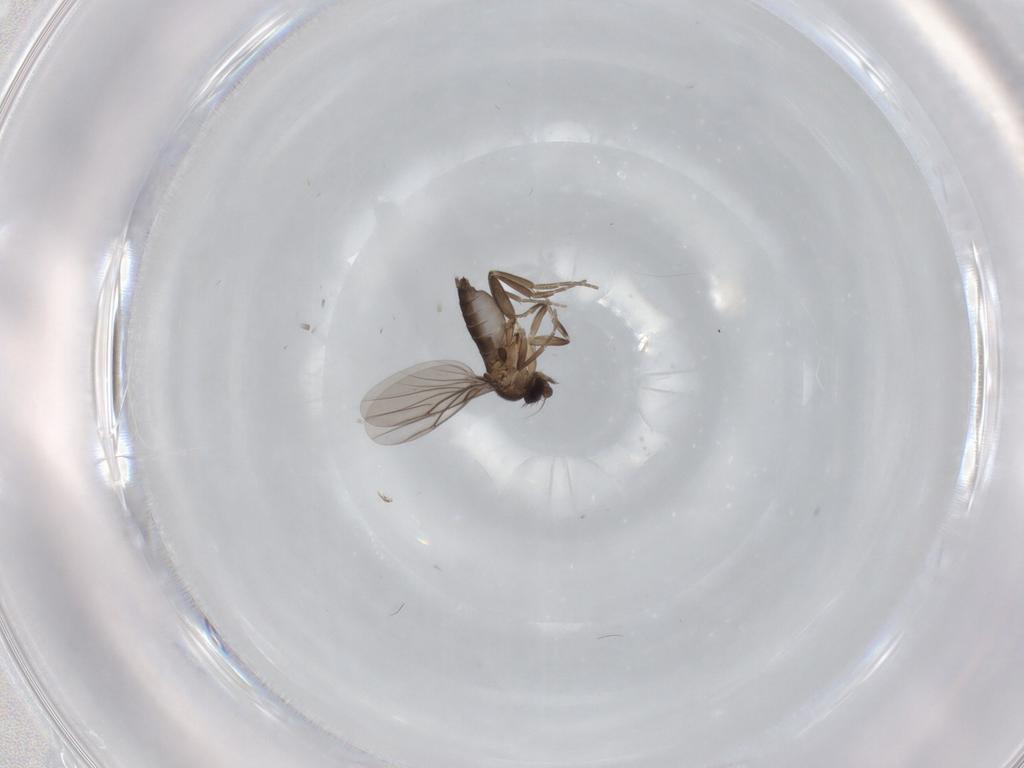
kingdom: Animalia
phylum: Arthropoda
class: Insecta
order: Diptera
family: Phoridae
